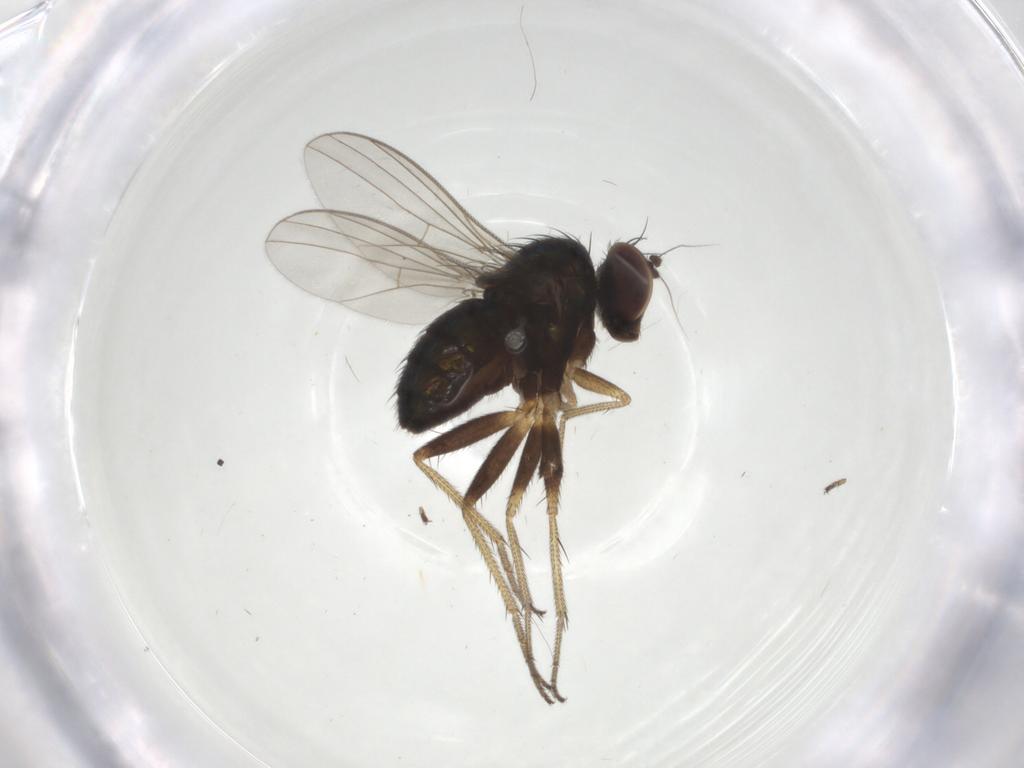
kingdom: Animalia
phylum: Arthropoda
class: Insecta
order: Diptera
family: Dolichopodidae
